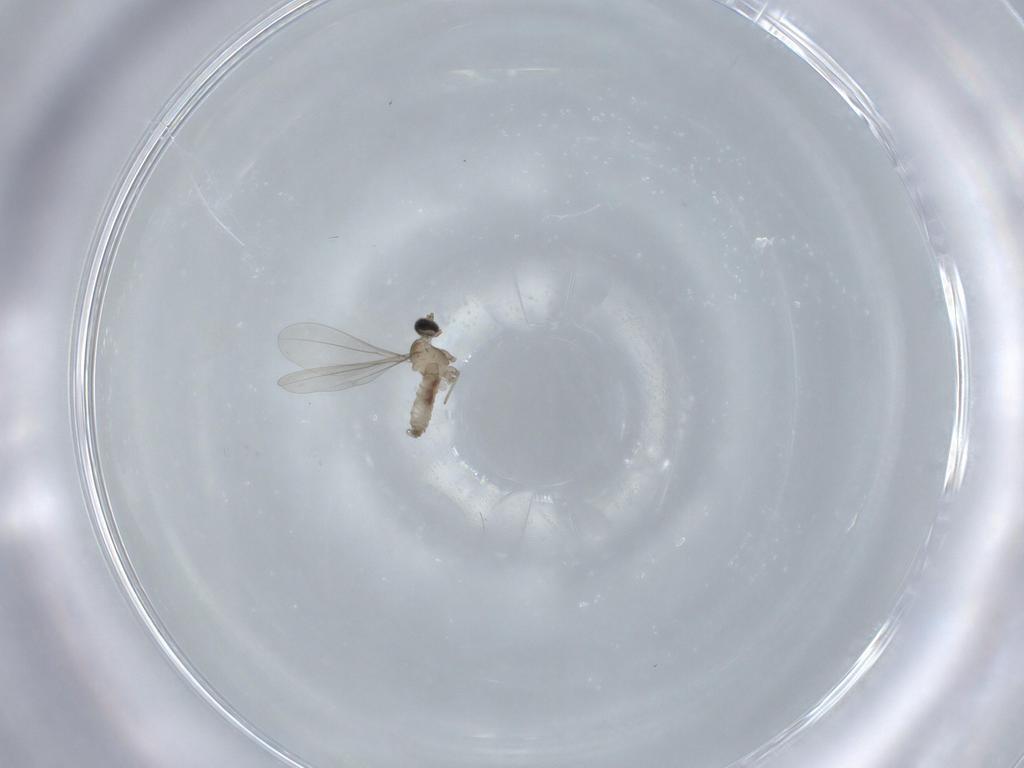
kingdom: Animalia
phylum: Arthropoda
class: Insecta
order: Diptera
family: Cecidomyiidae
